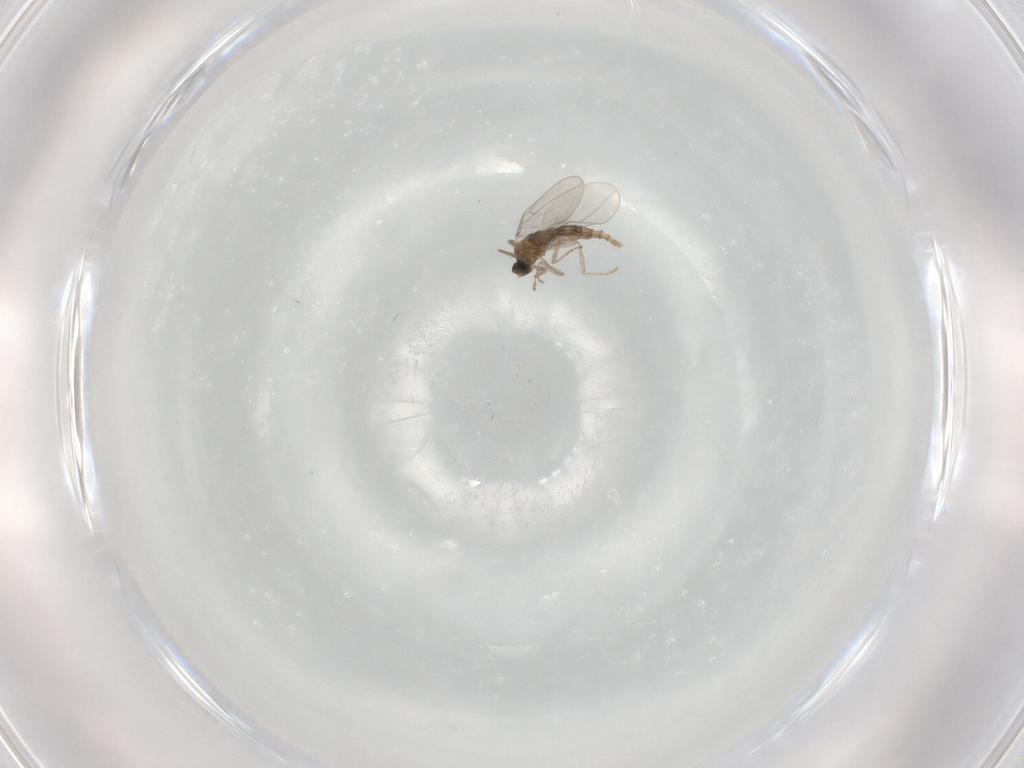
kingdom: Animalia
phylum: Arthropoda
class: Insecta
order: Diptera
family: Cecidomyiidae
